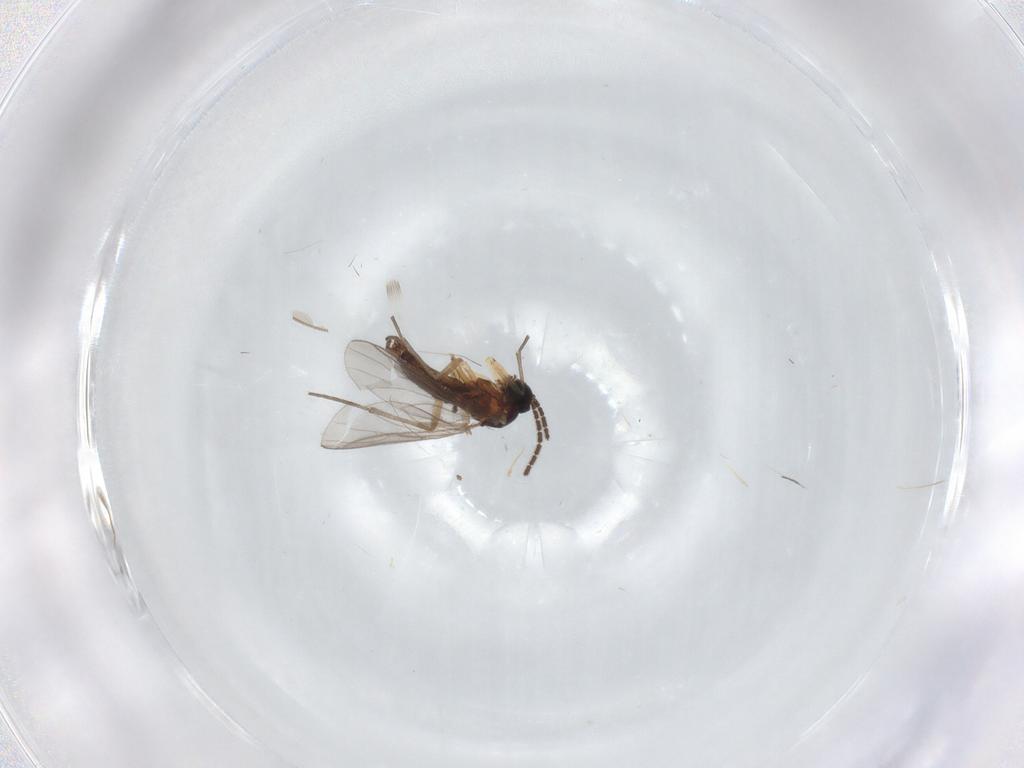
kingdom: Animalia
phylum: Arthropoda
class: Insecta
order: Diptera
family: Sciaridae
